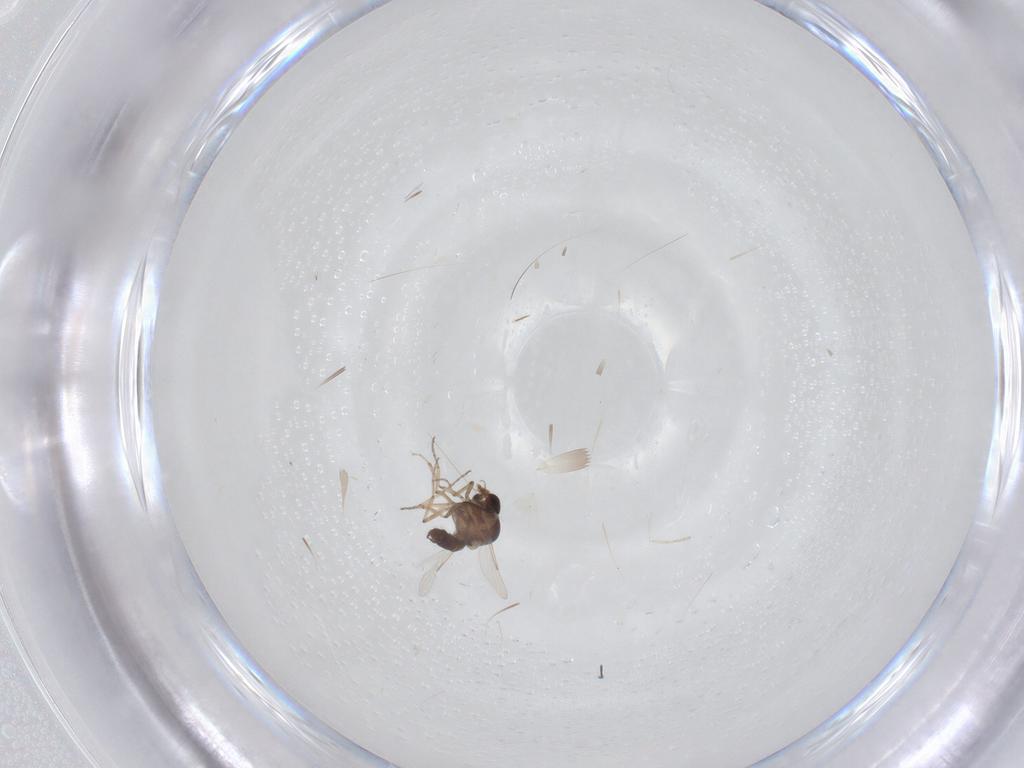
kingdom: Animalia
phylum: Arthropoda
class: Insecta
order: Diptera
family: Ceratopogonidae
